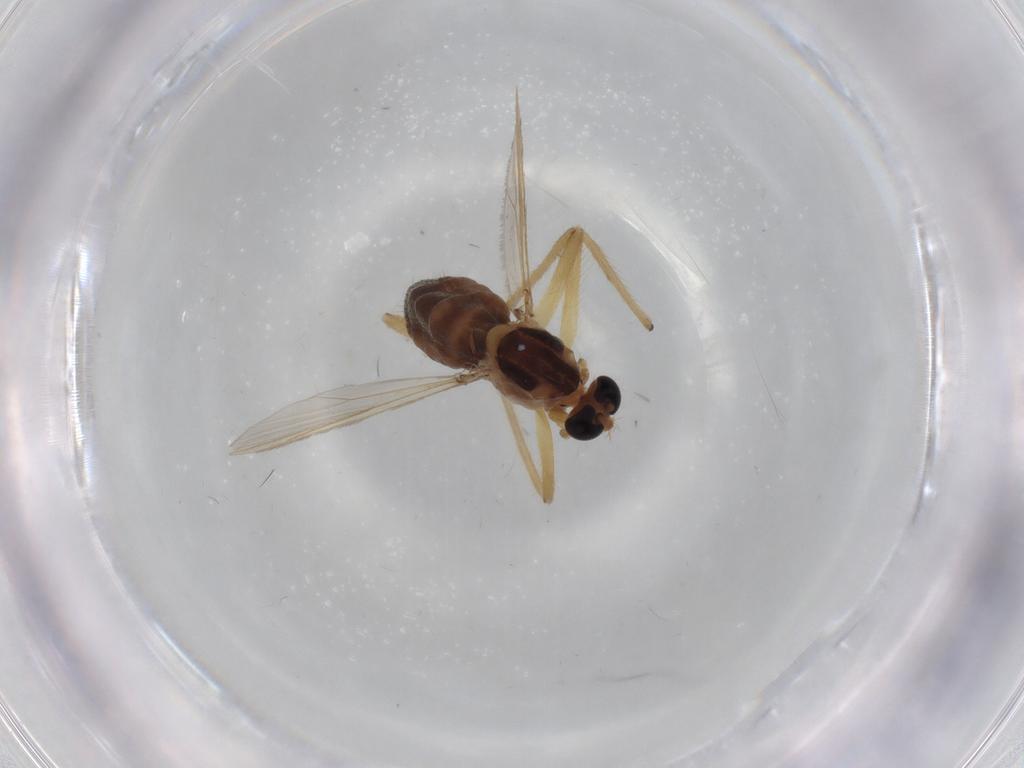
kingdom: Animalia
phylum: Arthropoda
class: Insecta
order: Diptera
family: Chironomidae
